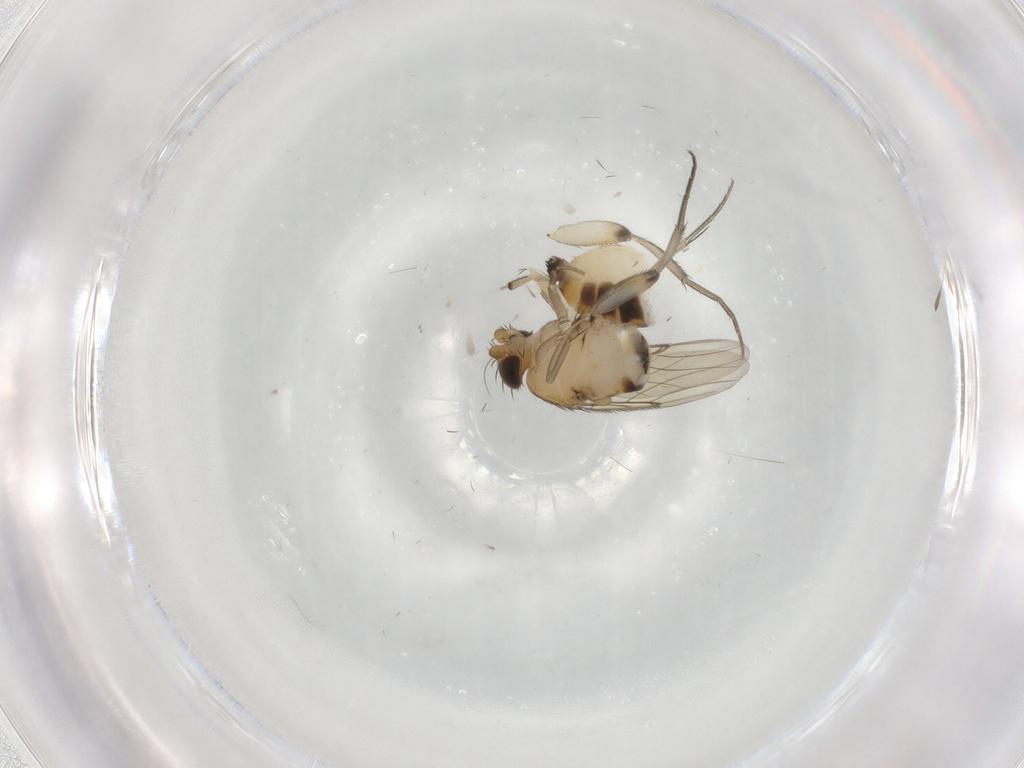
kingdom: Animalia
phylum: Arthropoda
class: Insecta
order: Diptera
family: Phoridae
